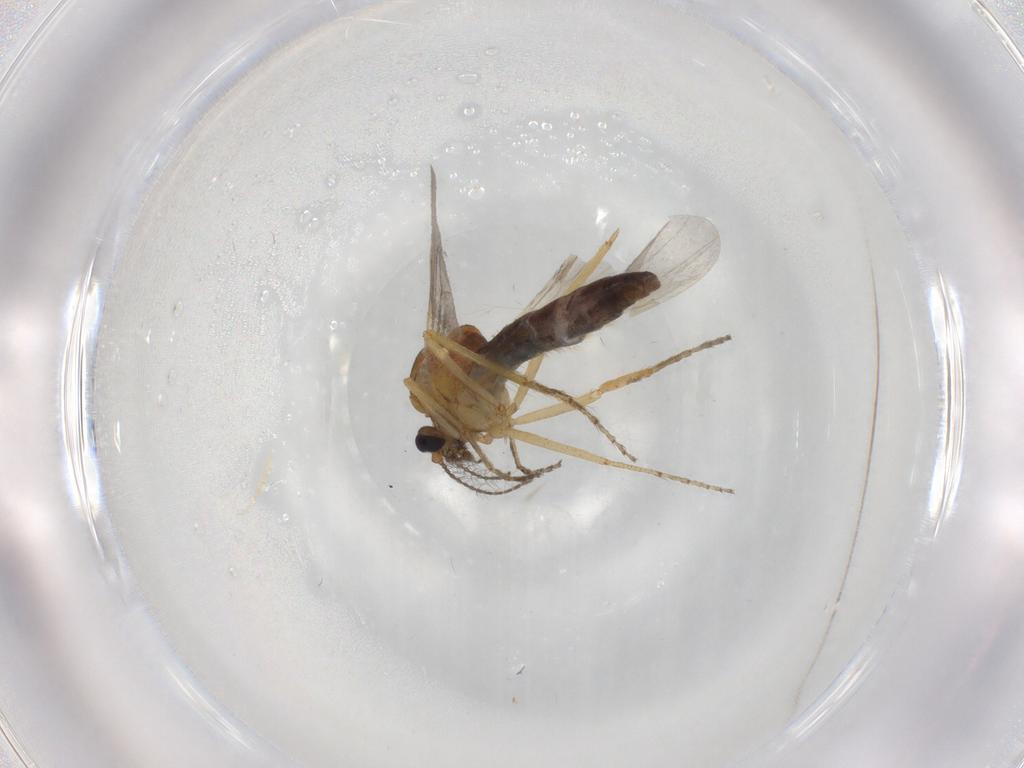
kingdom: Animalia
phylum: Arthropoda
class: Insecta
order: Diptera
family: Ceratopogonidae
